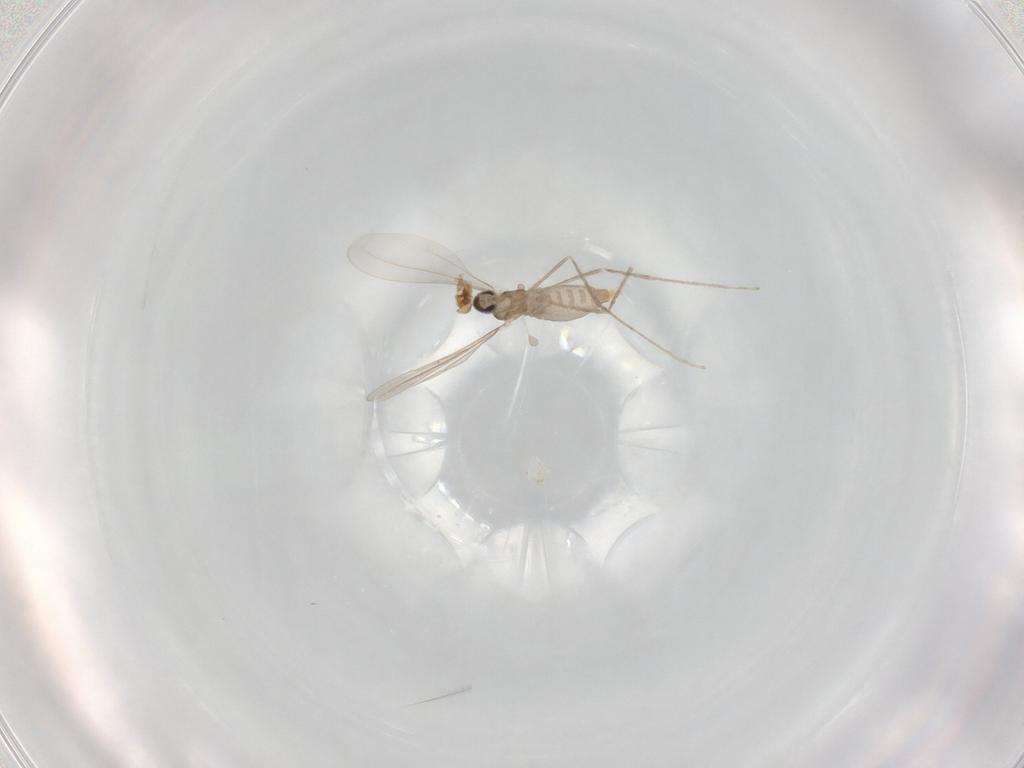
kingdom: Animalia
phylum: Arthropoda
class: Insecta
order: Diptera
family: Cecidomyiidae
